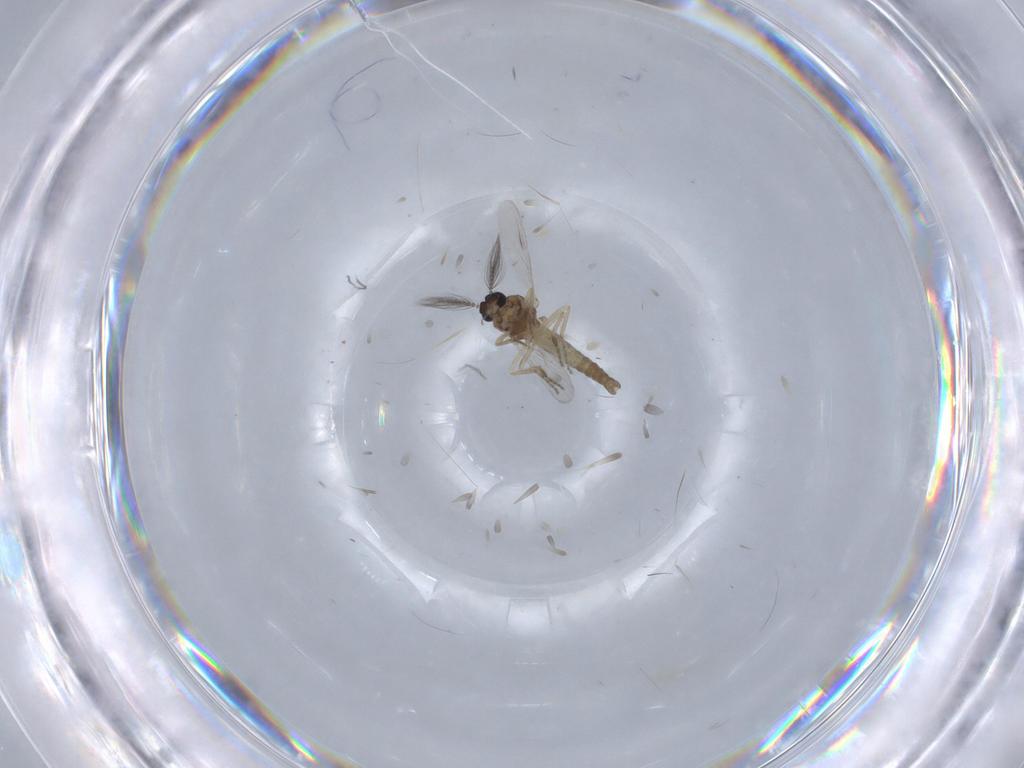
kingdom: Animalia
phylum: Arthropoda
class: Insecta
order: Diptera
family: Ceratopogonidae
